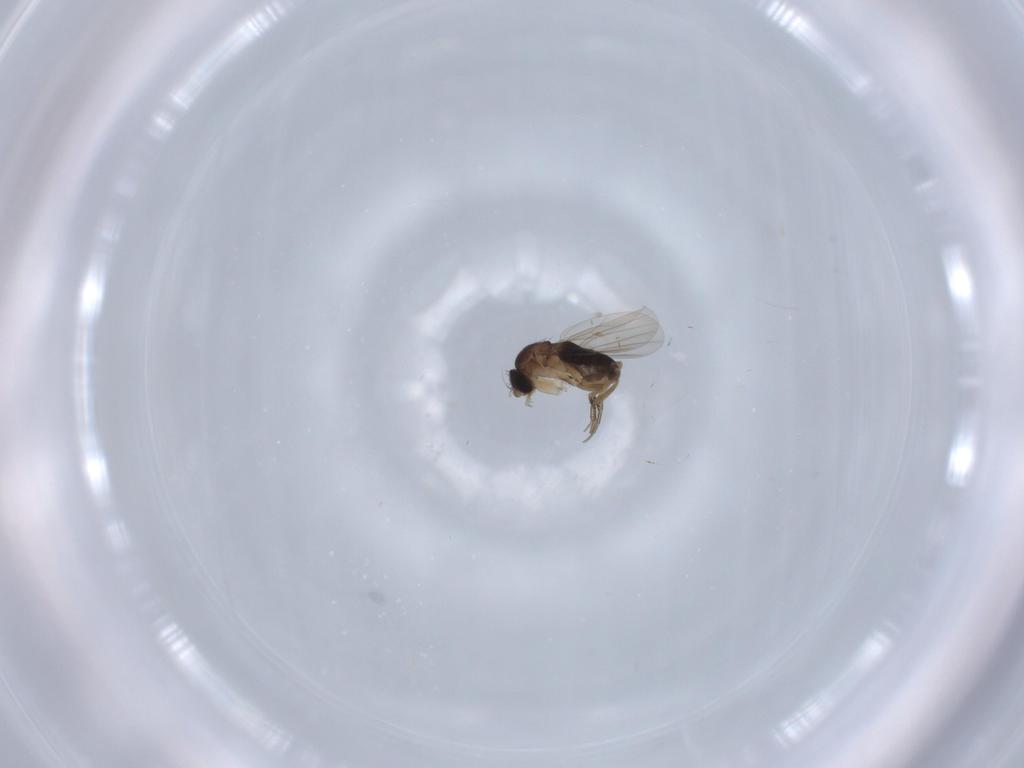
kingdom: Animalia
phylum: Arthropoda
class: Insecta
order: Diptera
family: Phoridae
